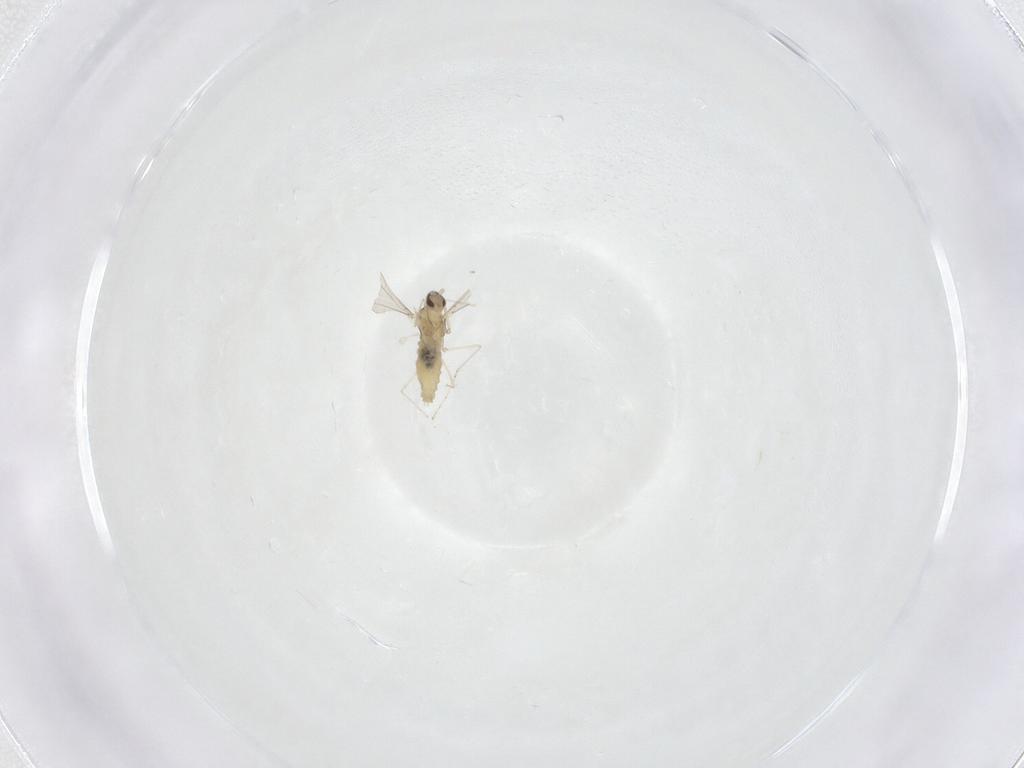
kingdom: Animalia
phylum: Arthropoda
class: Insecta
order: Diptera
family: Cecidomyiidae
